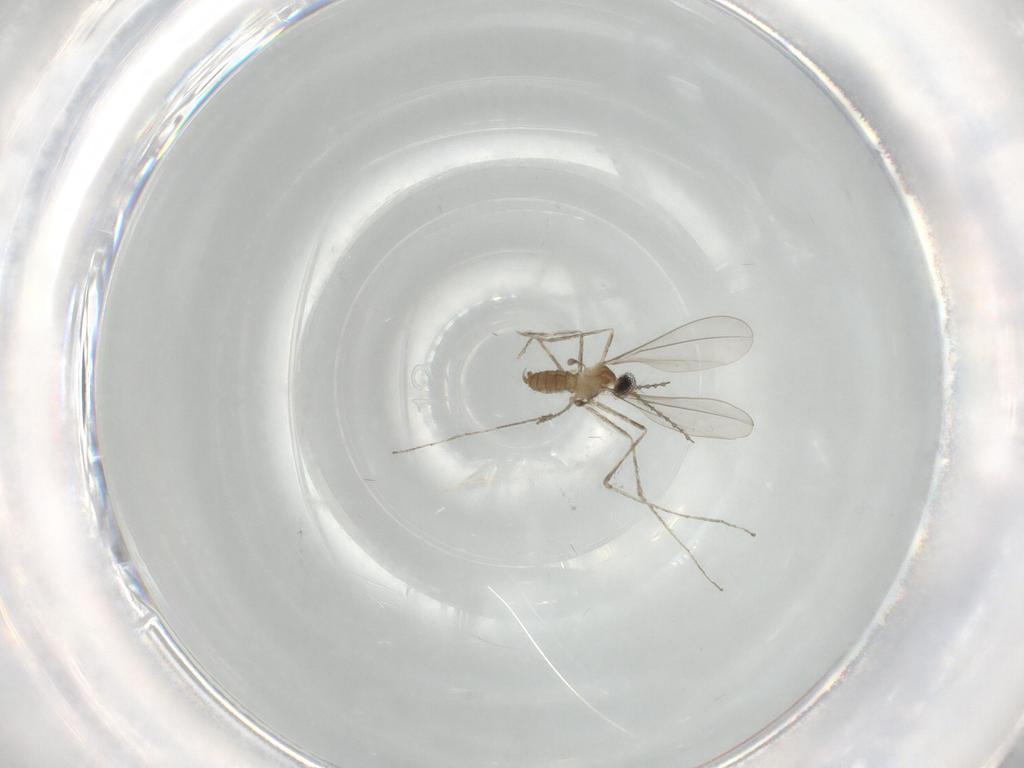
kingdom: Animalia
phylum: Arthropoda
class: Insecta
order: Diptera
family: Cecidomyiidae
